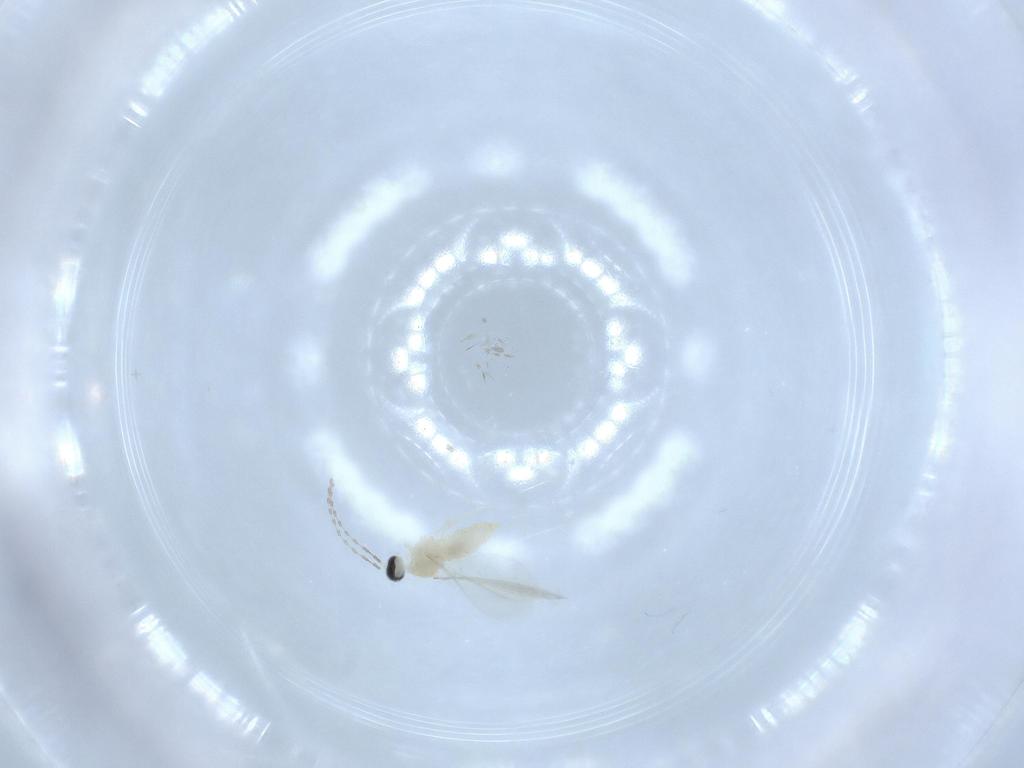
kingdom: Animalia
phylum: Arthropoda
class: Insecta
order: Diptera
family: Cecidomyiidae
